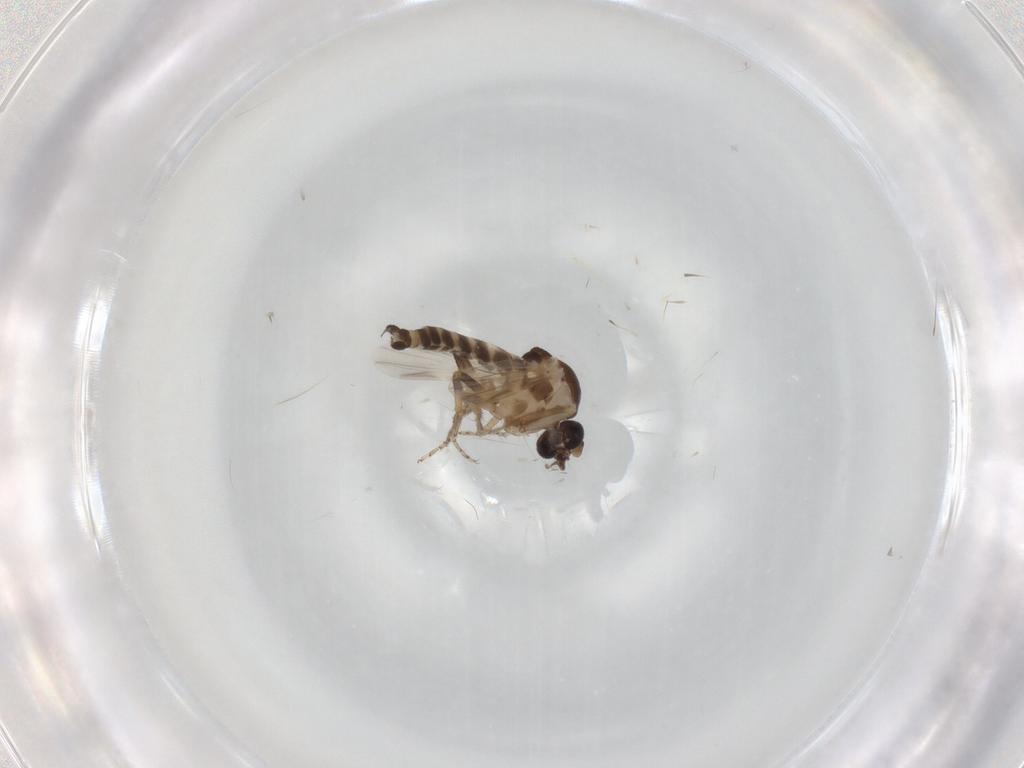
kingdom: Animalia
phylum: Arthropoda
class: Insecta
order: Diptera
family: Ceratopogonidae
